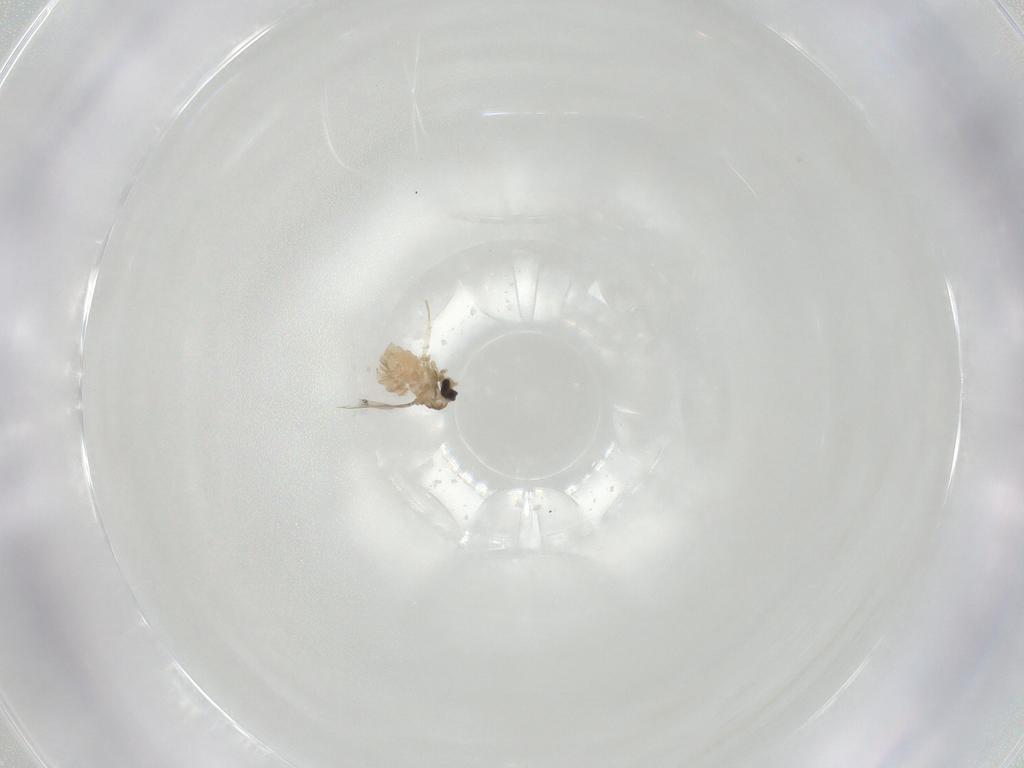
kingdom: Animalia
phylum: Arthropoda
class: Insecta
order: Diptera
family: Cecidomyiidae
